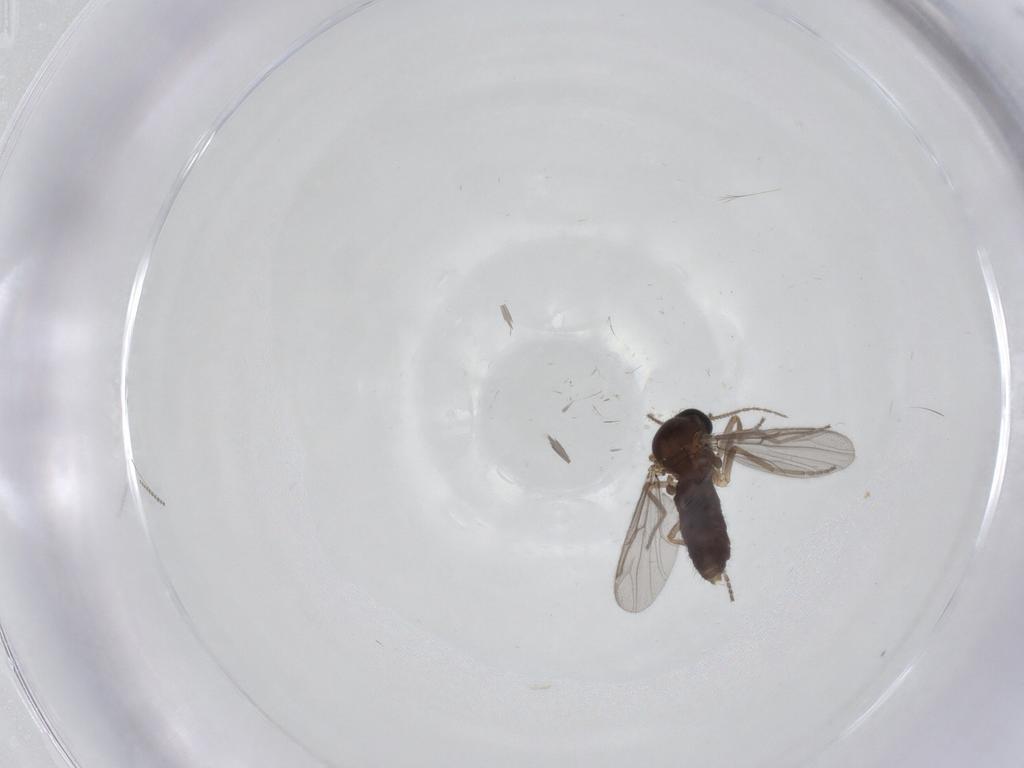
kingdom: Animalia
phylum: Arthropoda
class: Insecta
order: Diptera
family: Ceratopogonidae
